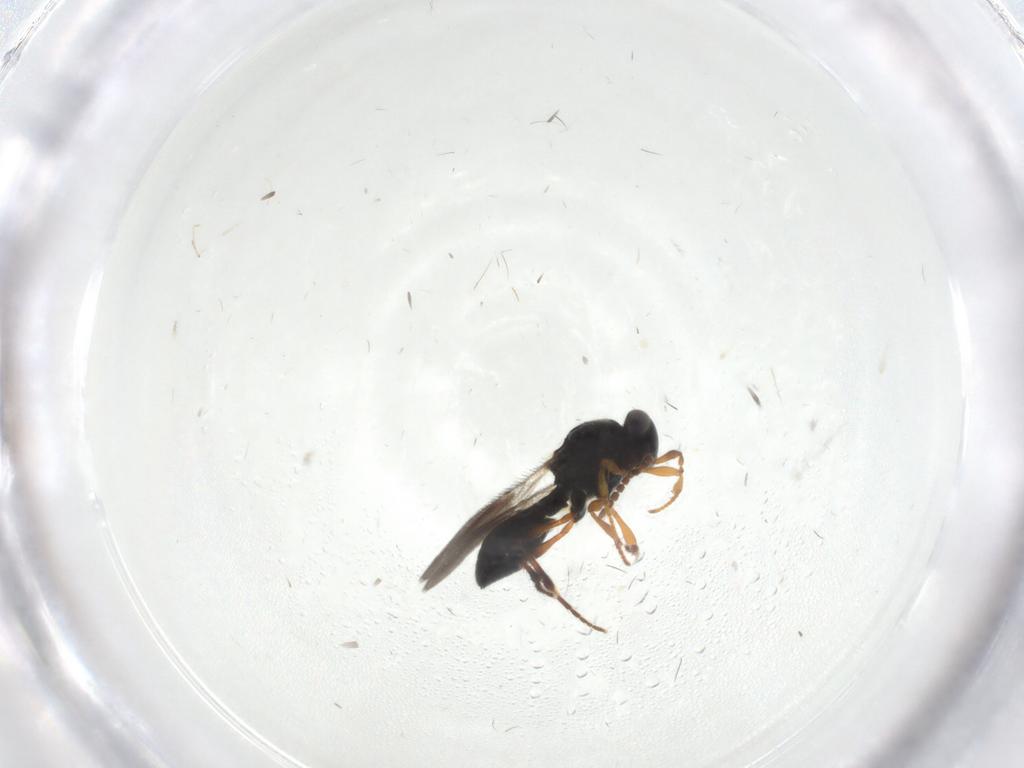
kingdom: Animalia
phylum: Arthropoda
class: Insecta
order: Hymenoptera
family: Platygastridae
